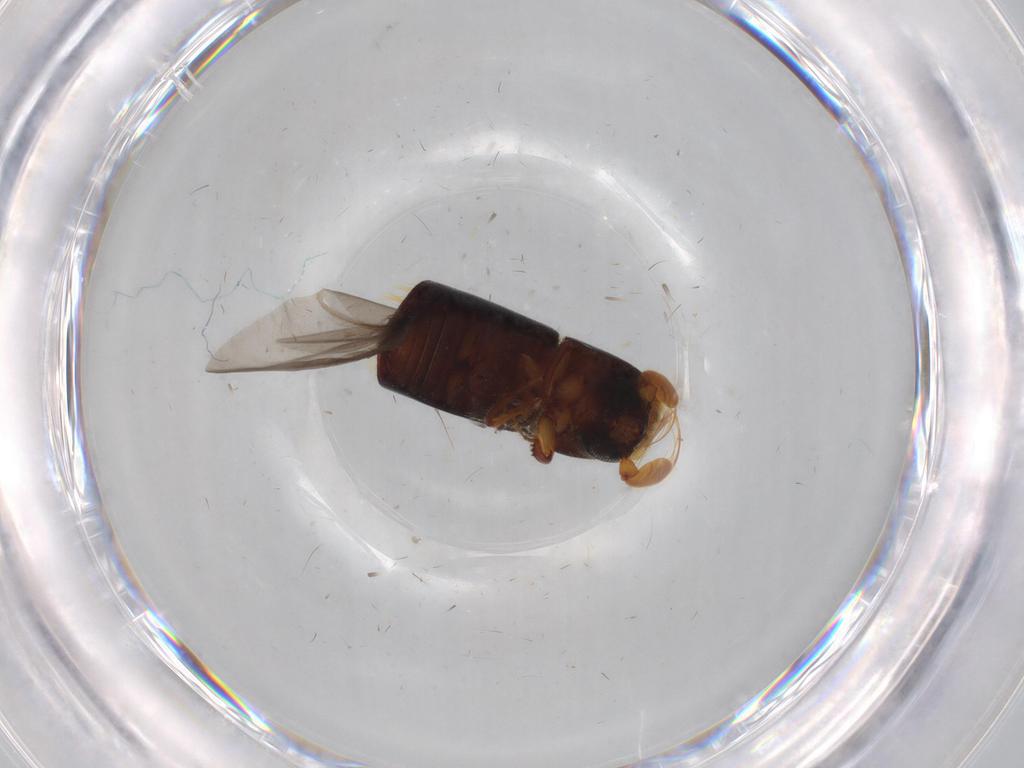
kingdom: Animalia
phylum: Arthropoda
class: Insecta
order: Coleoptera
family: Curculionidae
